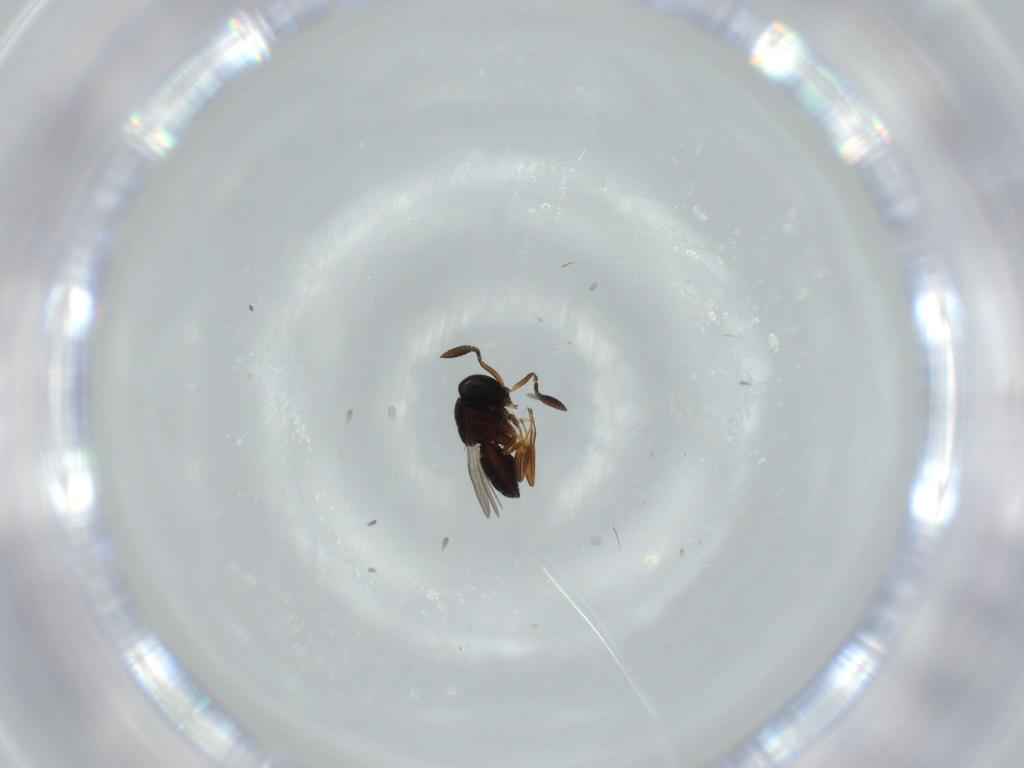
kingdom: Animalia
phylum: Arthropoda
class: Insecta
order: Coleoptera
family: Curculionidae
